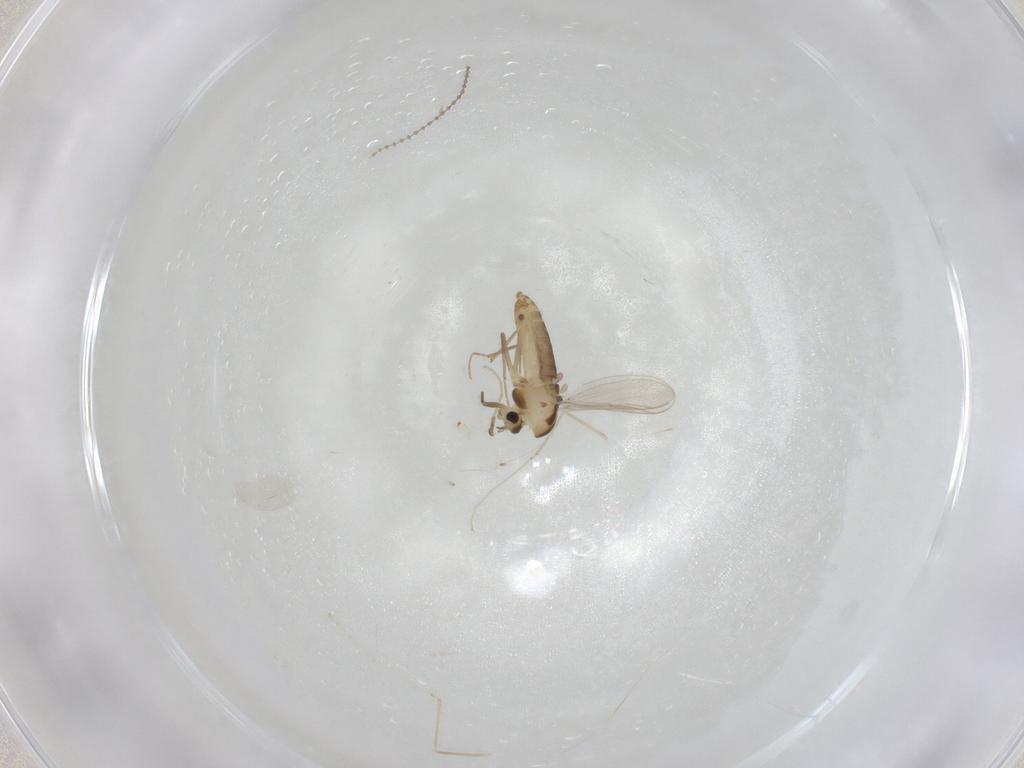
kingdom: Animalia
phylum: Arthropoda
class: Insecta
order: Diptera
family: Chironomidae
